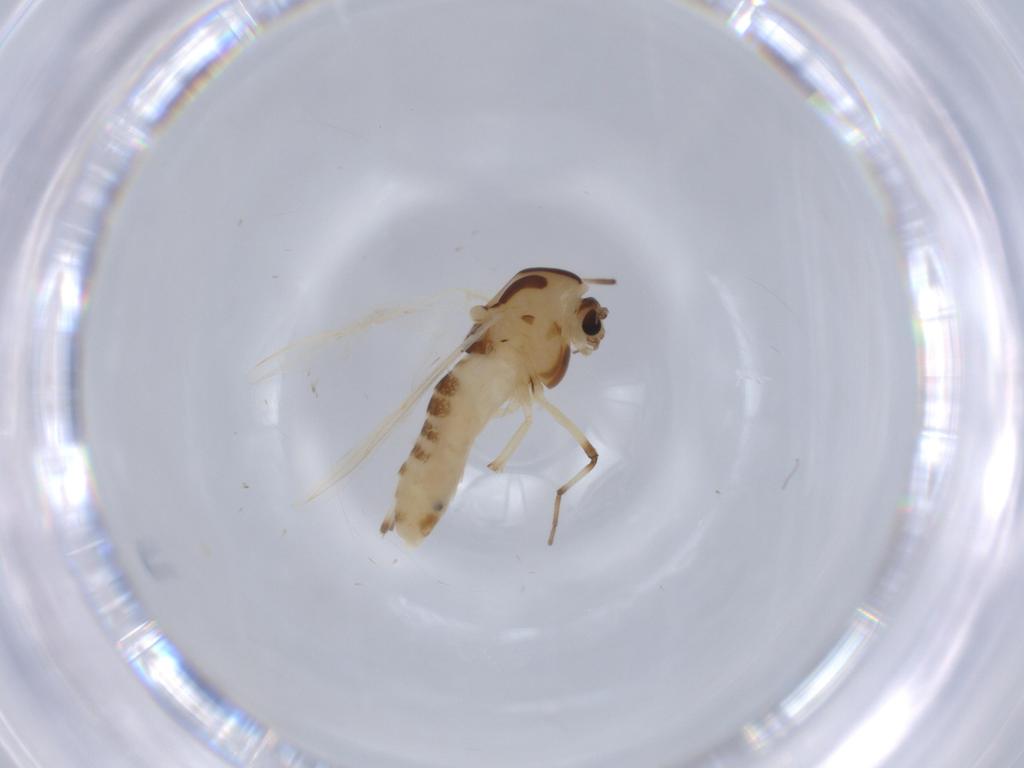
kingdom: Animalia
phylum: Arthropoda
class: Insecta
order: Diptera
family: Chironomidae
